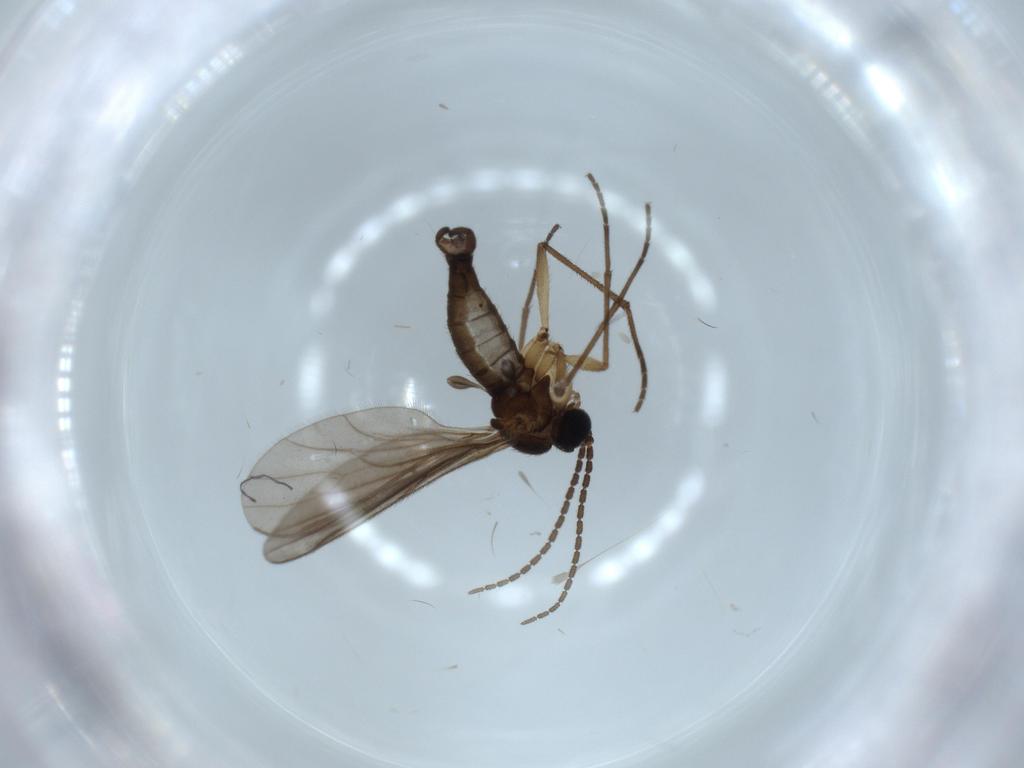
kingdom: Animalia
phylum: Arthropoda
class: Insecta
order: Diptera
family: Sciaridae
